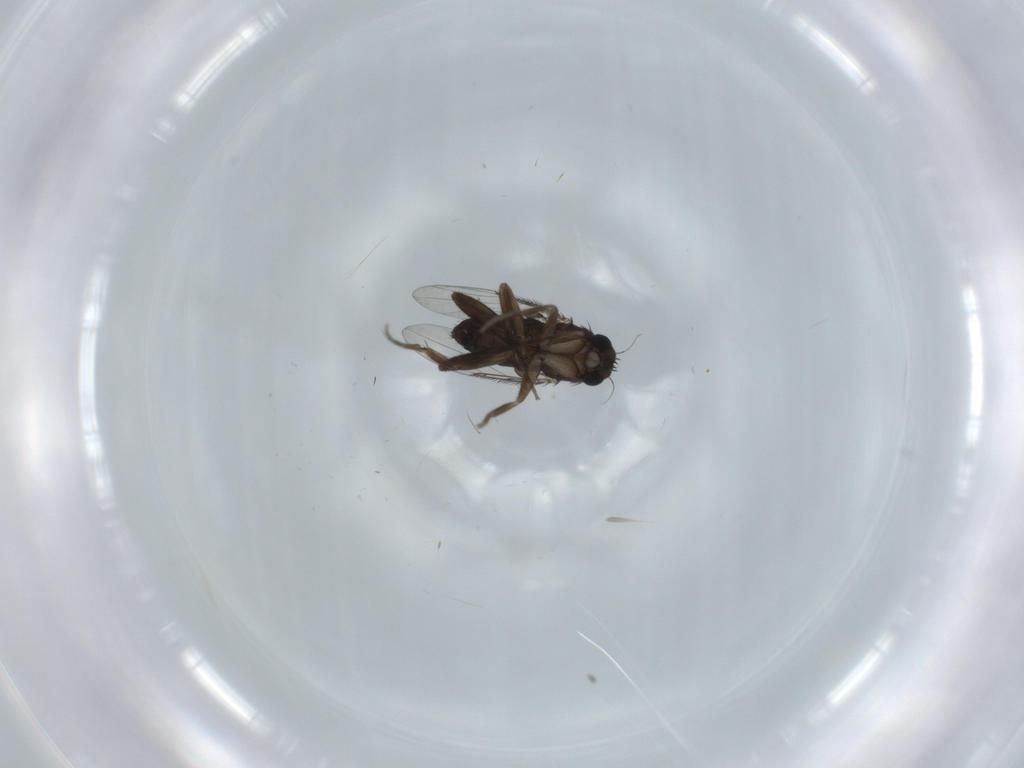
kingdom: Animalia
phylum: Arthropoda
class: Insecta
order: Diptera
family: Phoridae
